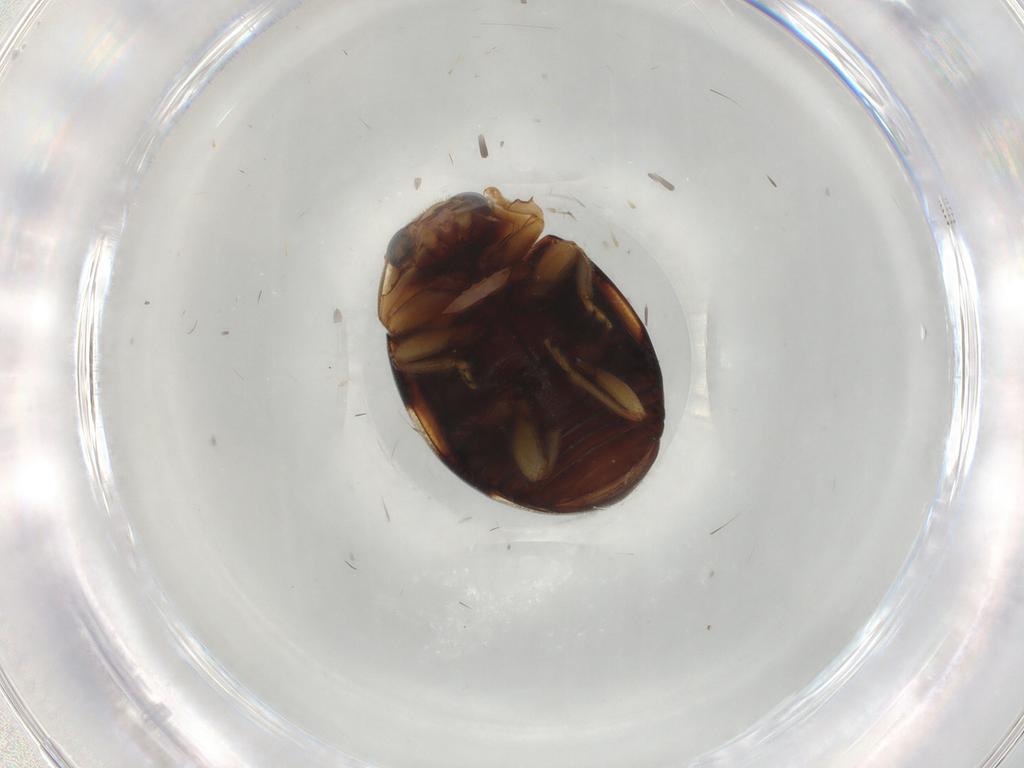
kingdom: Animalia
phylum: Arthropoda
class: Insecta
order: Coleoptera
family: Coccinellidae
